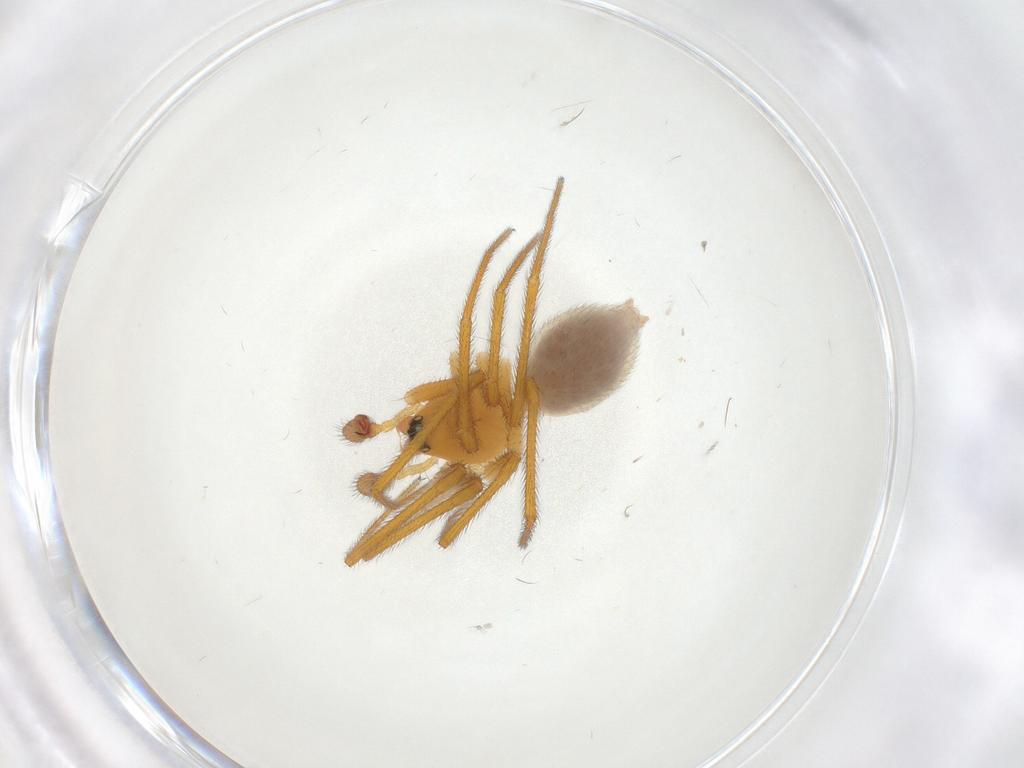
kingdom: Animalia
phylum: Arthropoda
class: Arachnida
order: Araneae
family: Linyphiidae
